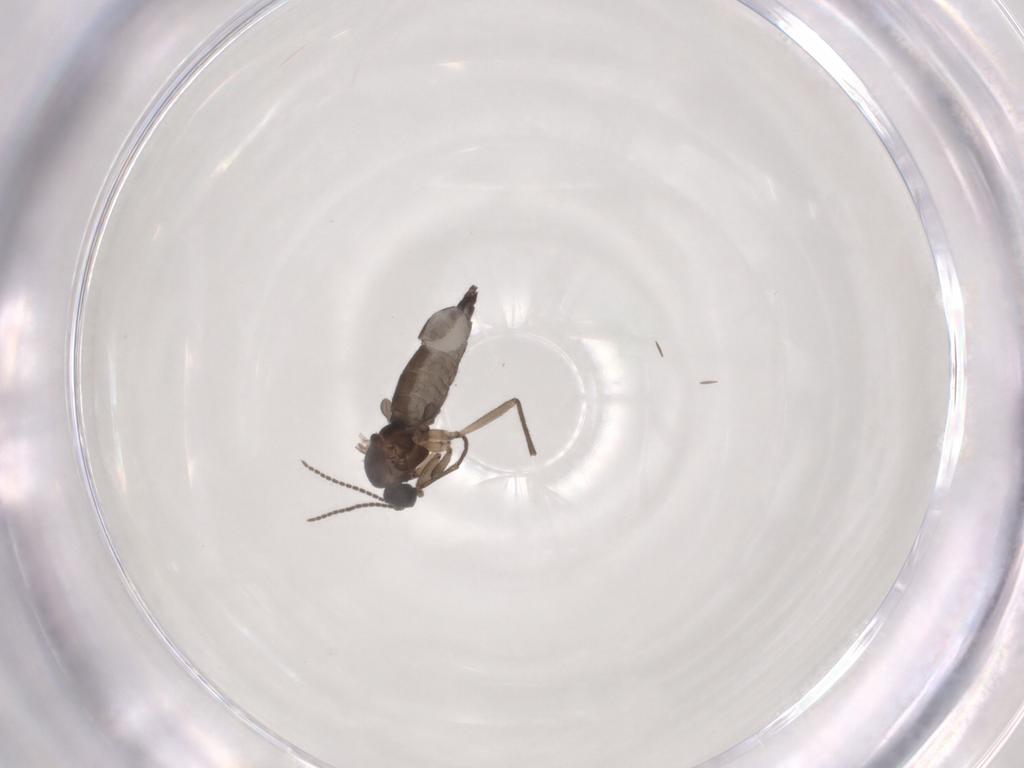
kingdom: Animalia
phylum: Arthropoda
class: Insecta
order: Diptera
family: Sciaridae
